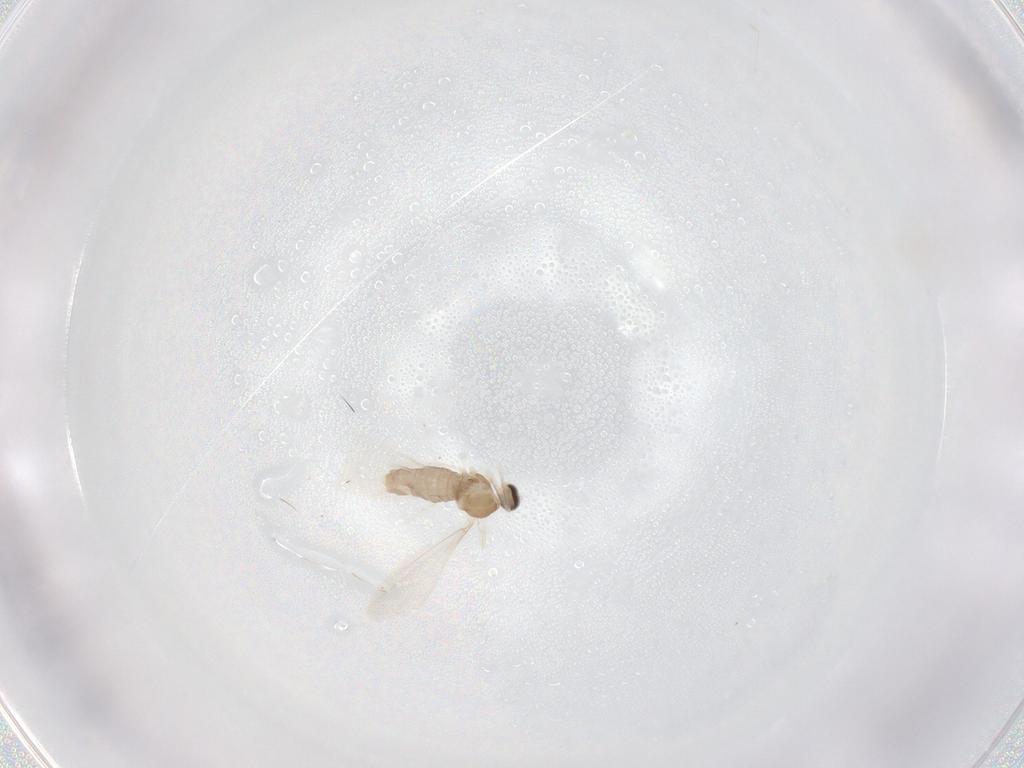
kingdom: Animalia
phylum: Arthropoda
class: Insecta
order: Diptera
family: Cecidomyiidae
